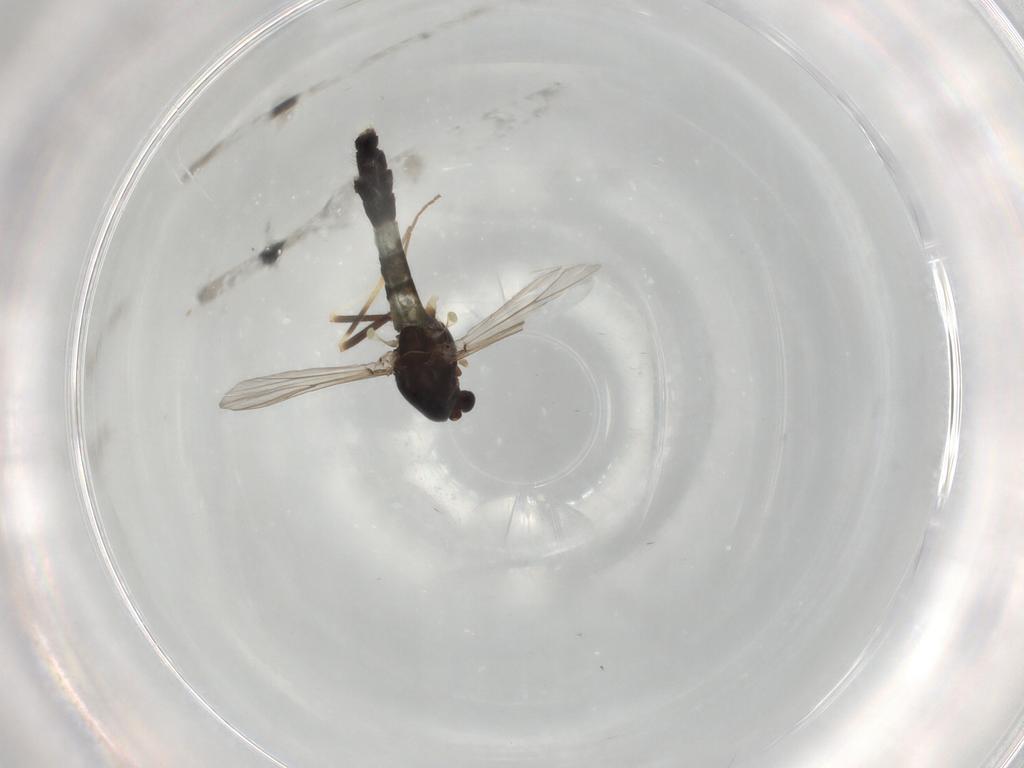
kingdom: Animalia
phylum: Arthropoda
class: Insecta
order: Diptera
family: Chironomidae
